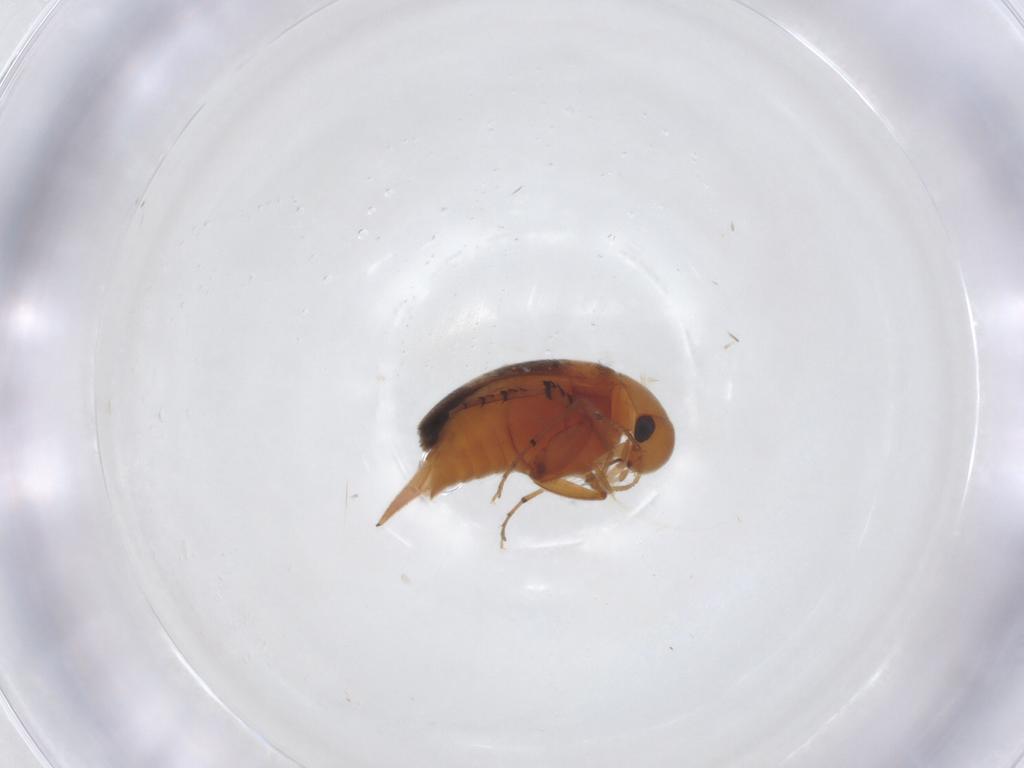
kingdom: Animalia
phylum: Arthropoda
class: Insecta
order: Coleoptera
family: Mordellidae
